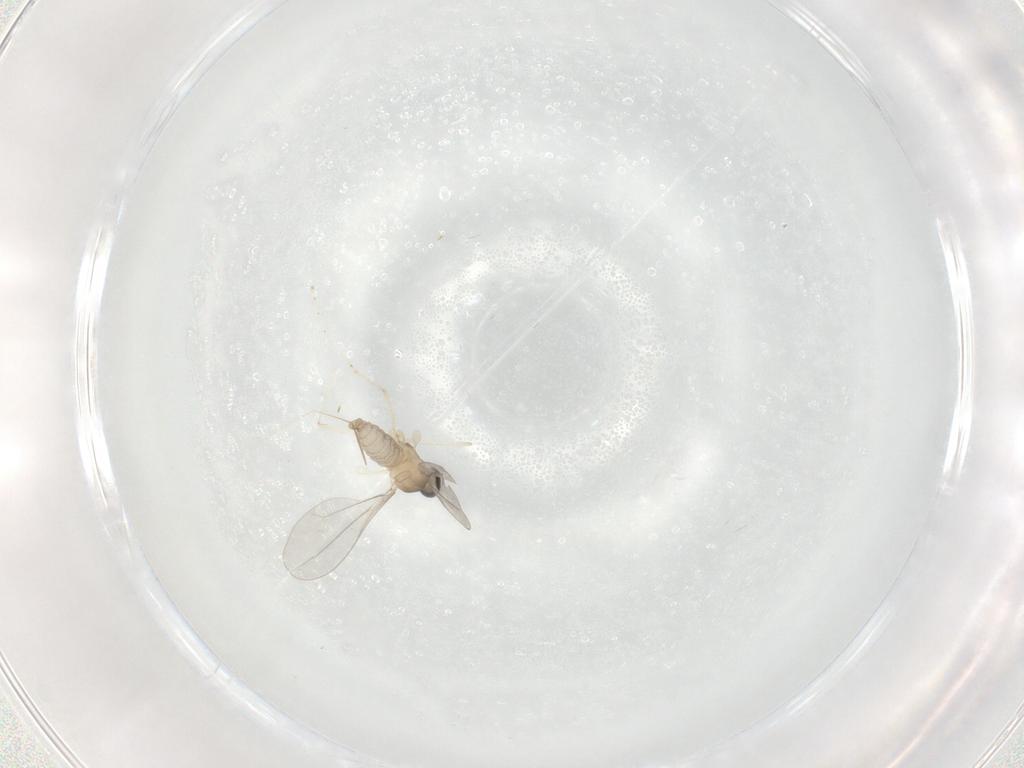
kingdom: Animalia
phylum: Arthropoda
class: Insecta
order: Diptera
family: Cecidomyiidae
